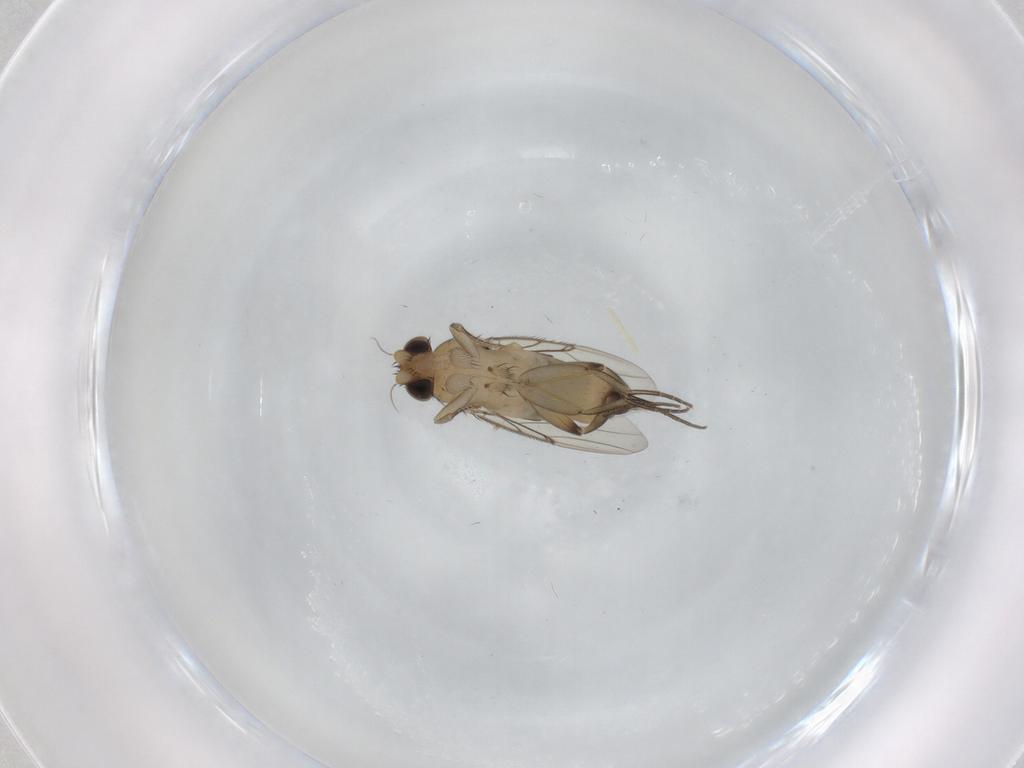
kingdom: Animalia
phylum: Arthropoda
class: Insecta
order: Diptera
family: Phoridae
